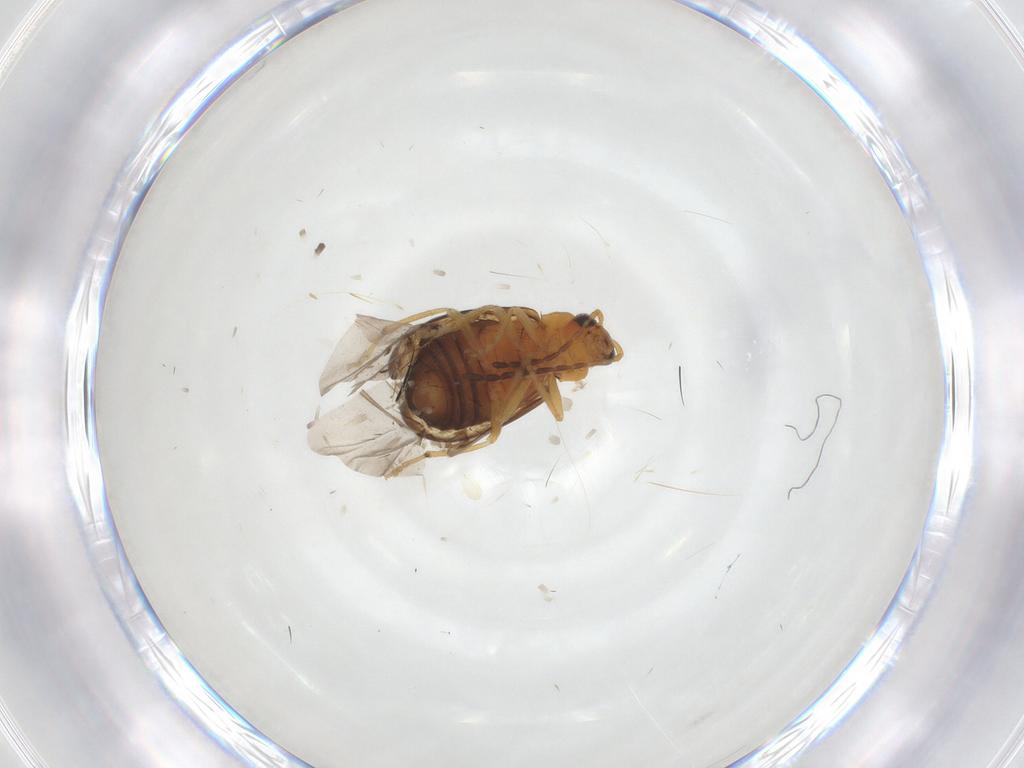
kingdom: Animalia
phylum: Arthropoda
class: Insecta
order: Coleoptera
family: Chrysomelidae
